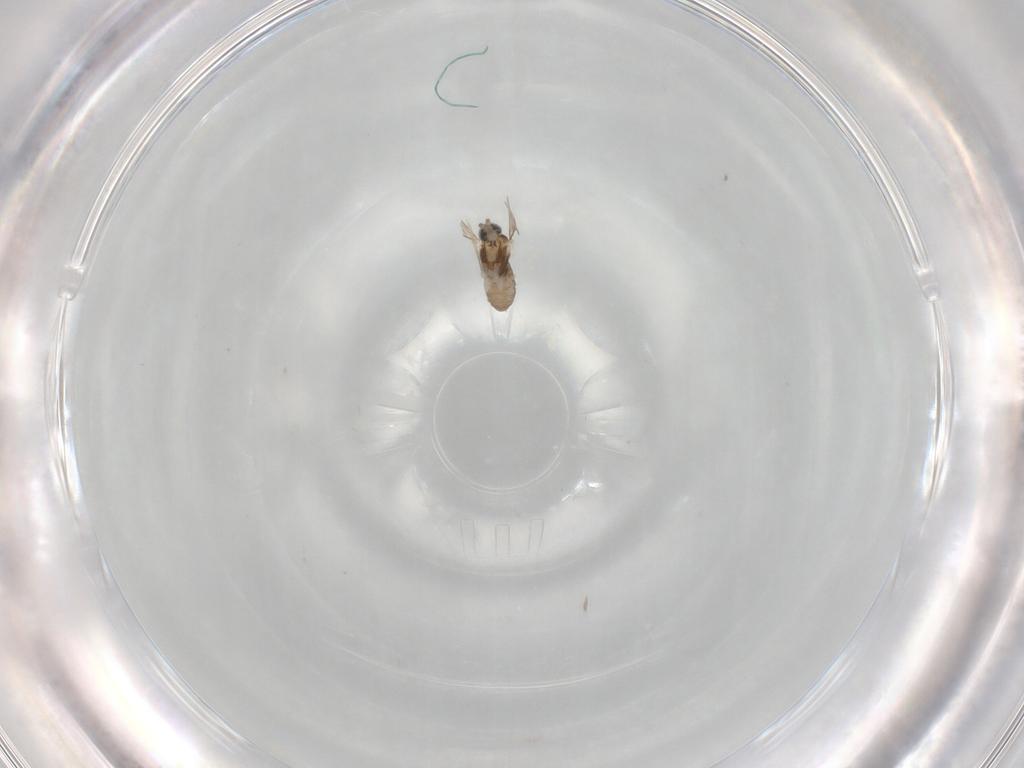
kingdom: Animalia
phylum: Arthropoda
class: Insecta
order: Diptera
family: Cecidomyiidae
